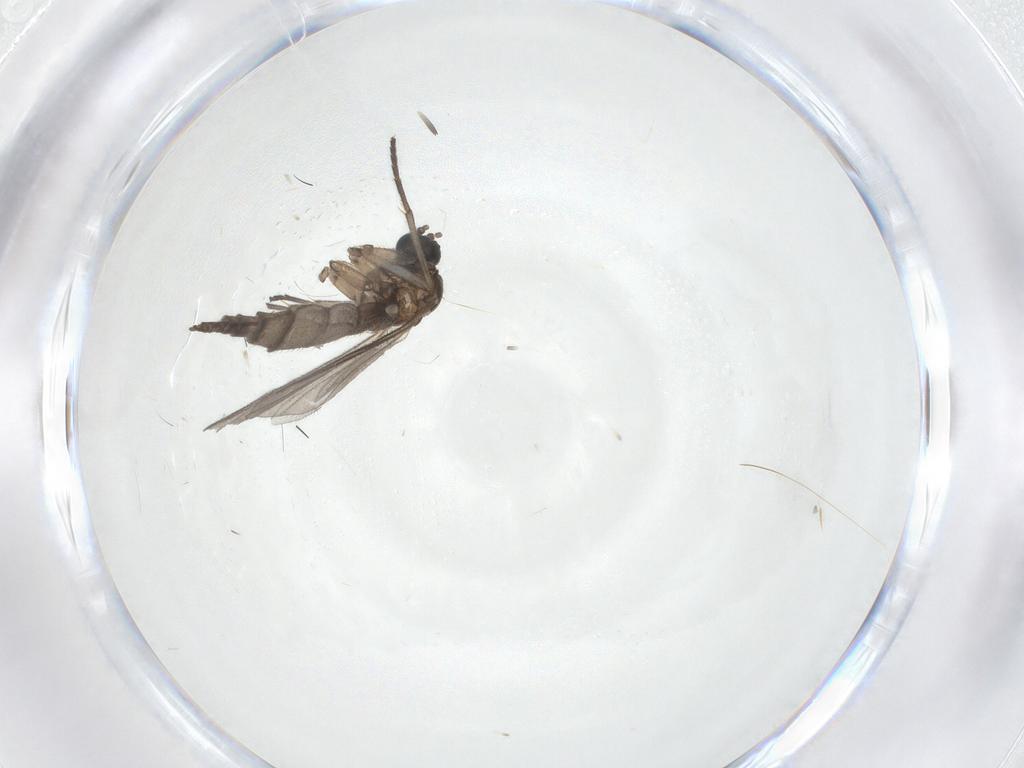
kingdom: Animalia
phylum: Arthropoda
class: Insecta
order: Diptera
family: Sciaridae
